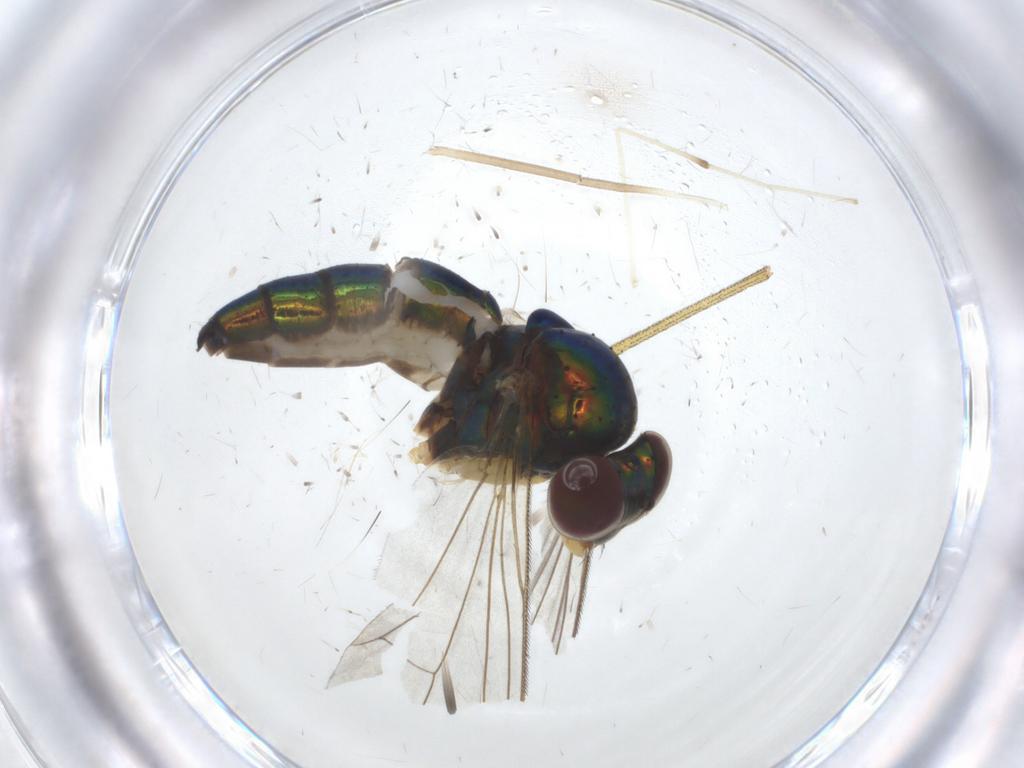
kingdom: Animalia
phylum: Arthropoda
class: Insecta
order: Diptera
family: Dolichopodidae
